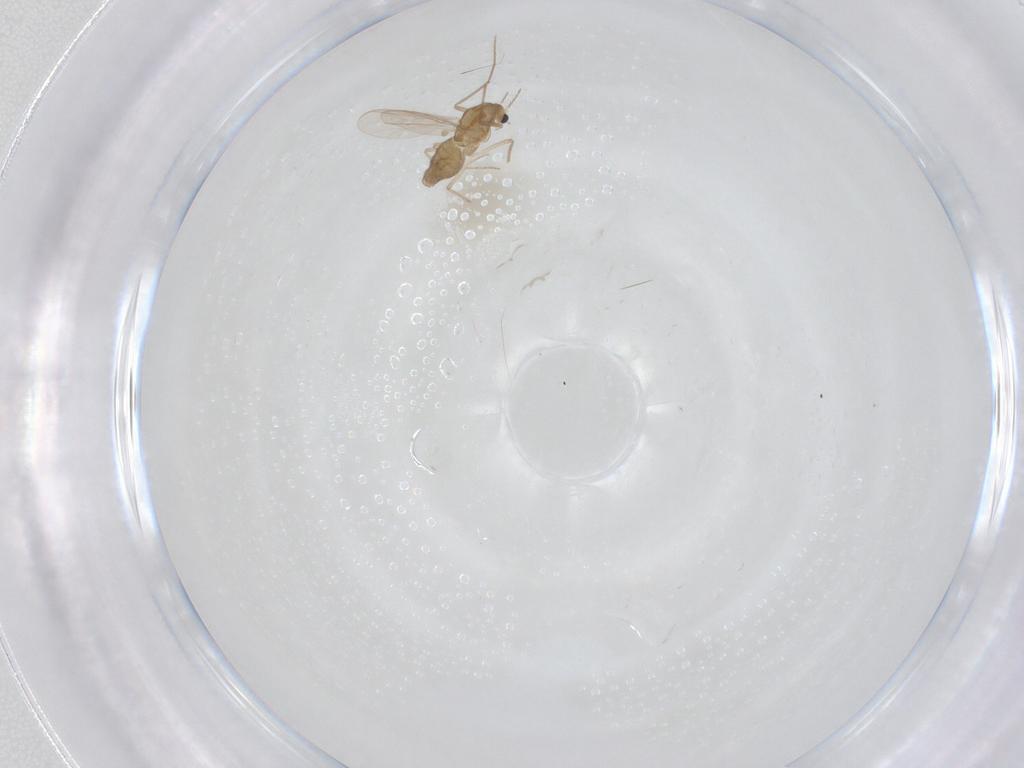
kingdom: Animalia
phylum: Arthropoda
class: Insecta
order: Diptera
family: Chironomidae
